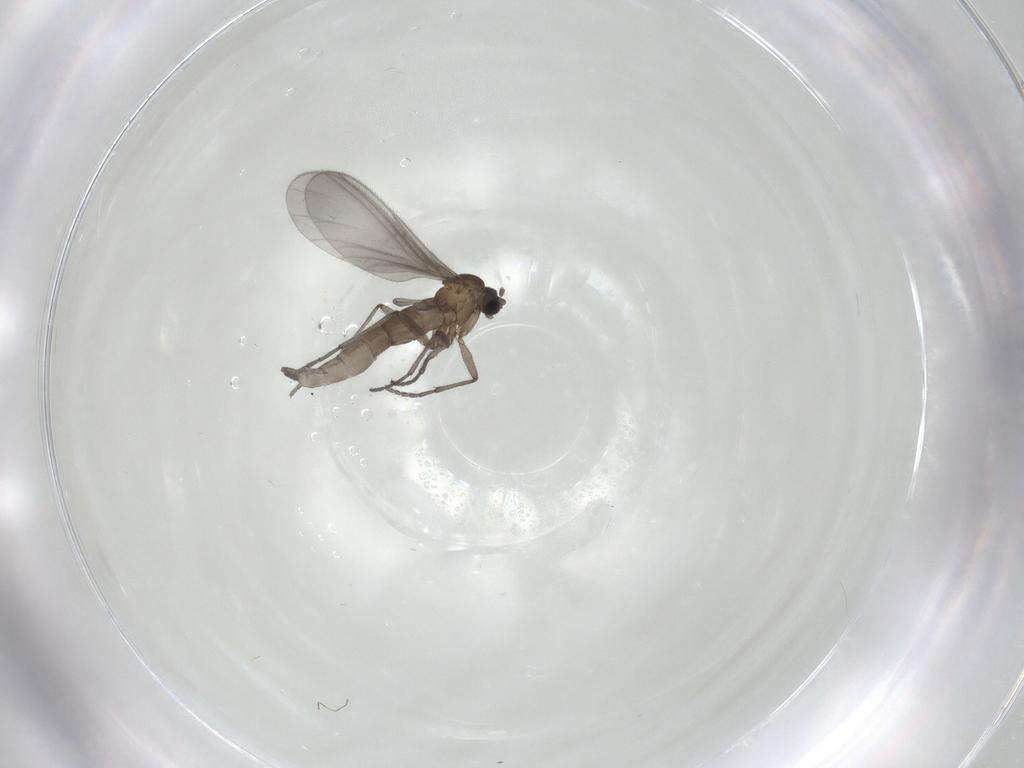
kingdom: Animalia
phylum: Arthropoda
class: Insecta
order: Diptera
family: Sciaridae
